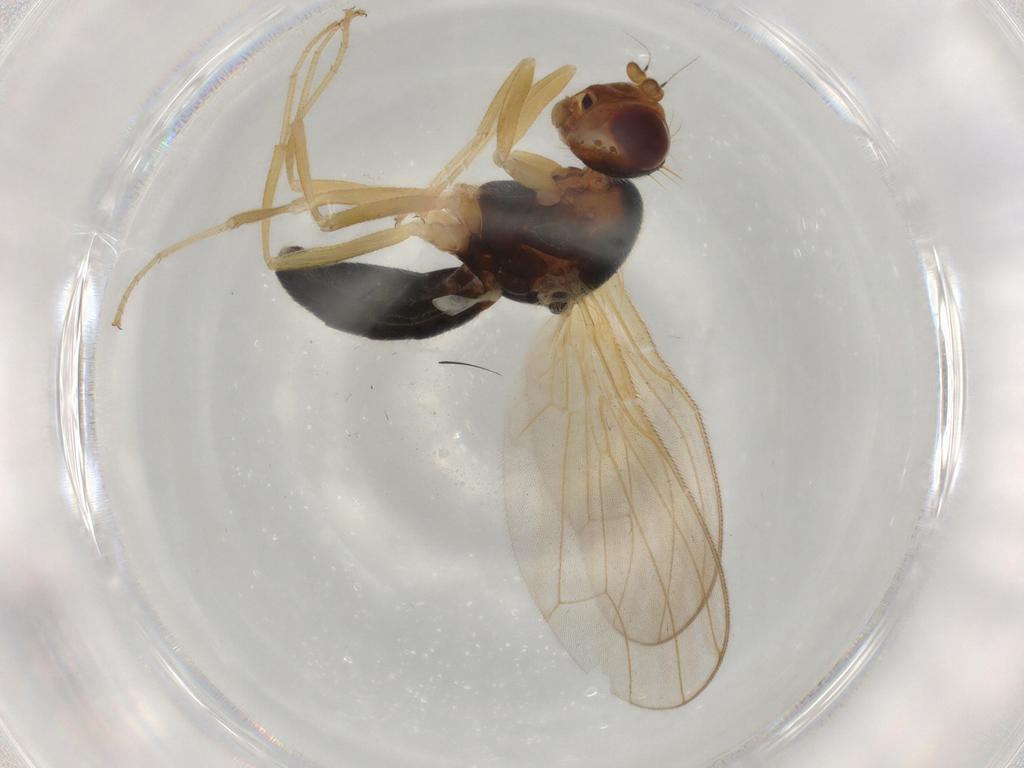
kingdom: Animalia
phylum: Arthropoda
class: Insecta
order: Diptera
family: Psilidae
